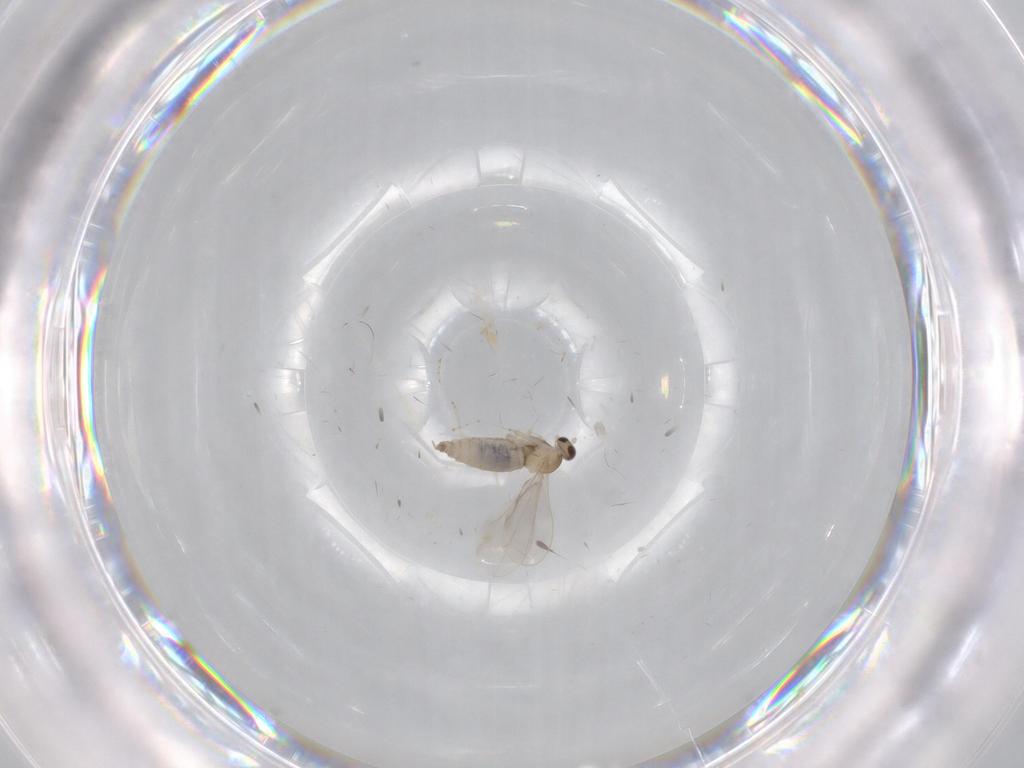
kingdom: Animalia
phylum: Arthropoda
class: Insecta
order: Diptera
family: Cecidomyiidae
